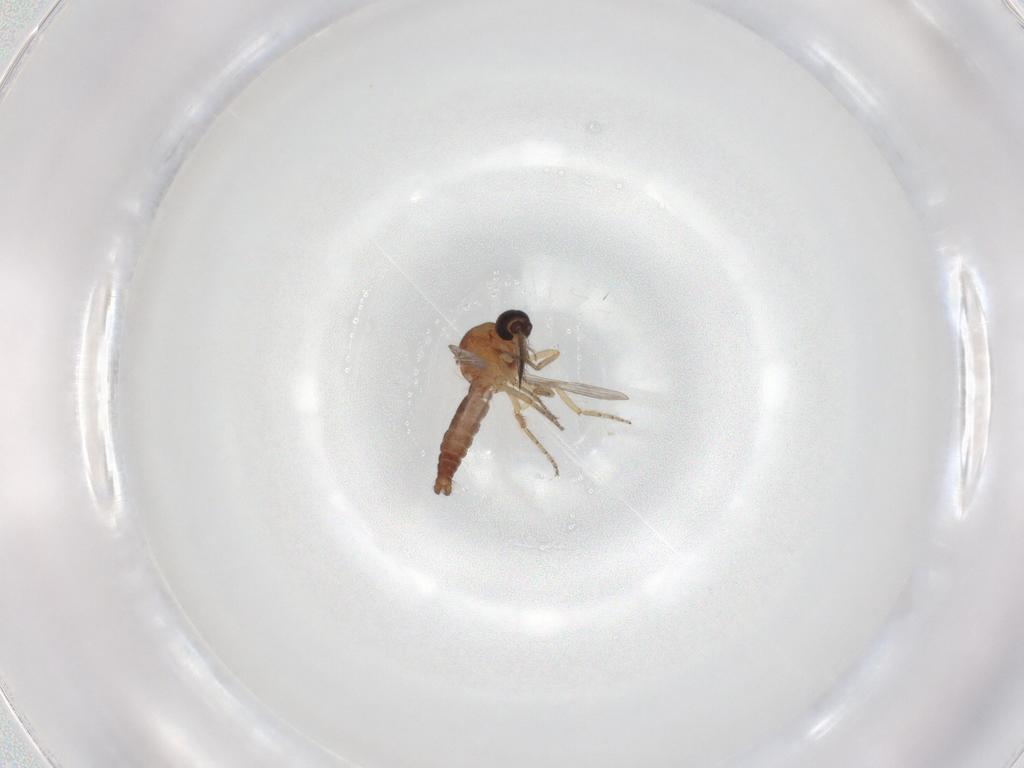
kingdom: Animalia
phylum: Arthropoda
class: Insecta
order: Diptera
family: Ceratopogonidae
